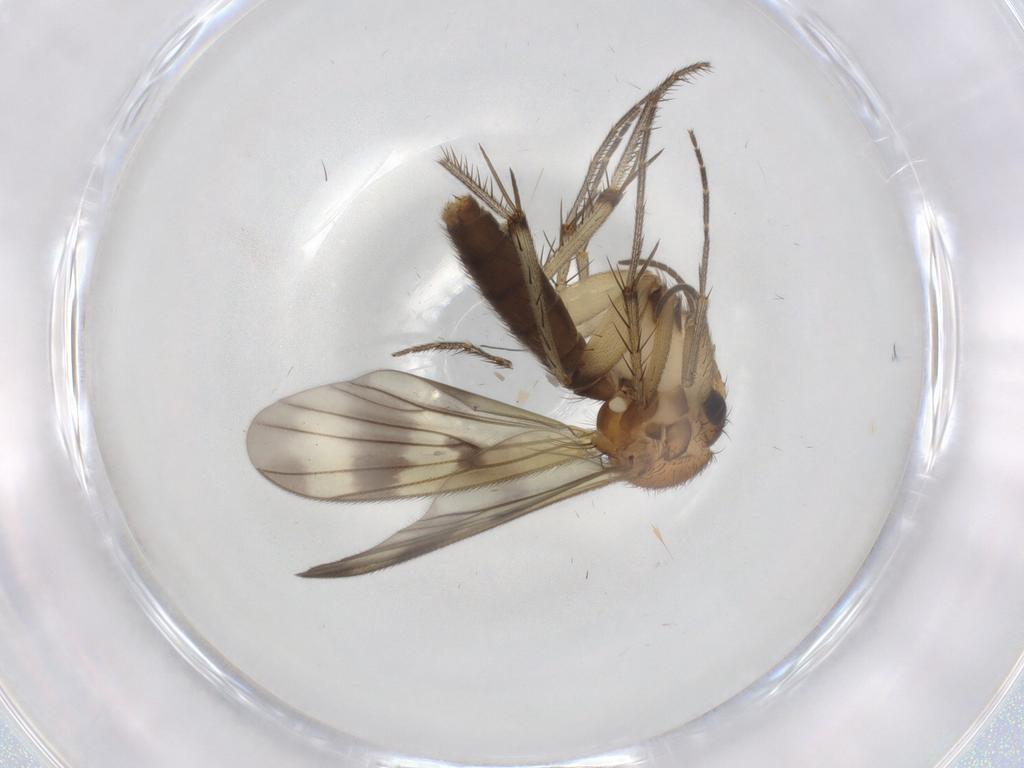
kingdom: Animalia
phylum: Arthropoda
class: Insecta
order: Diptera
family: Mycetophilidae
